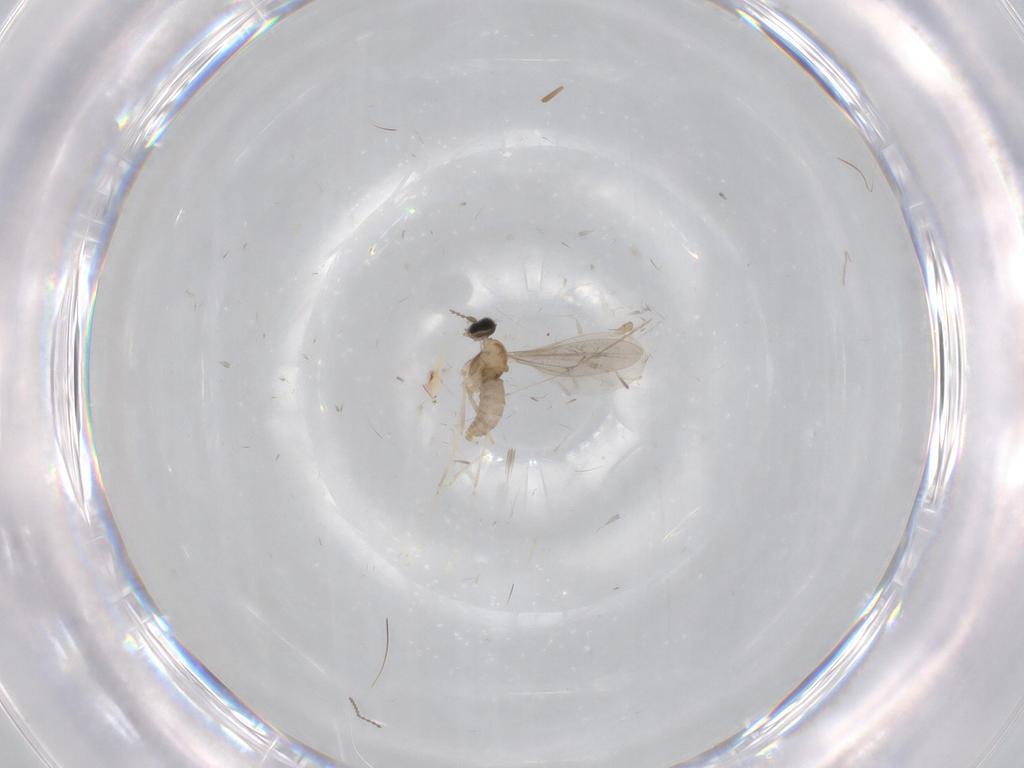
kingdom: Animalia
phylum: Arthropoda
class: Insecta
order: Diptera
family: Cecidomyiidae
